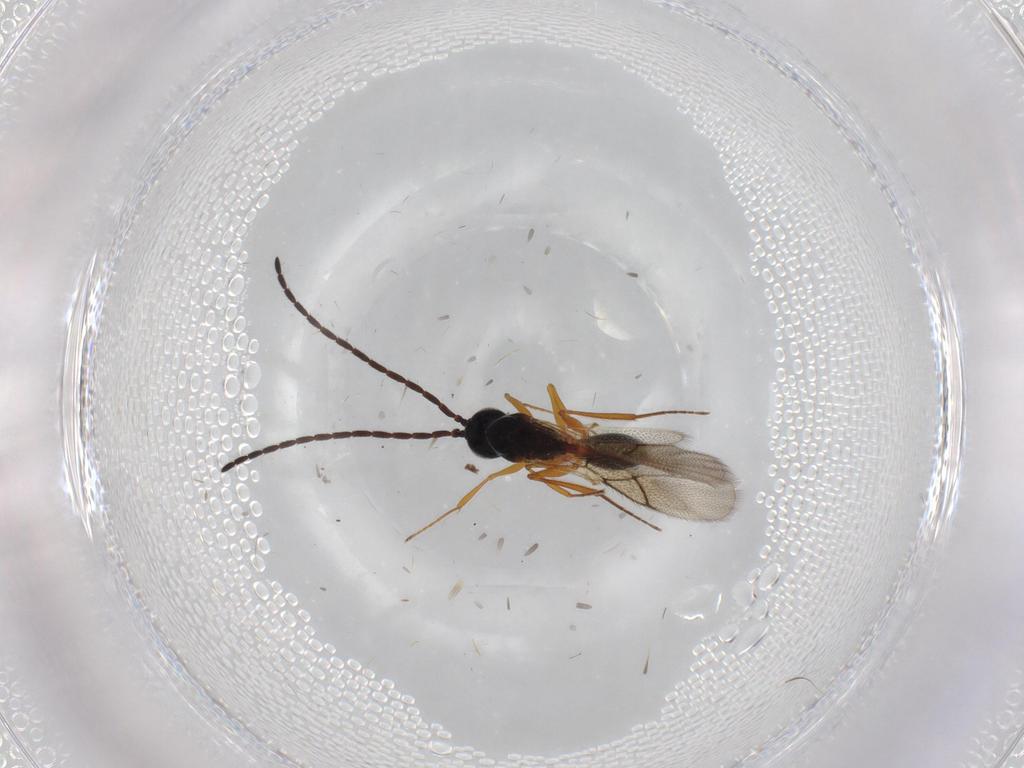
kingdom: Animalia
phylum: Arthropoda
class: Insecta
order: Hymenoptera
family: Figitidae
